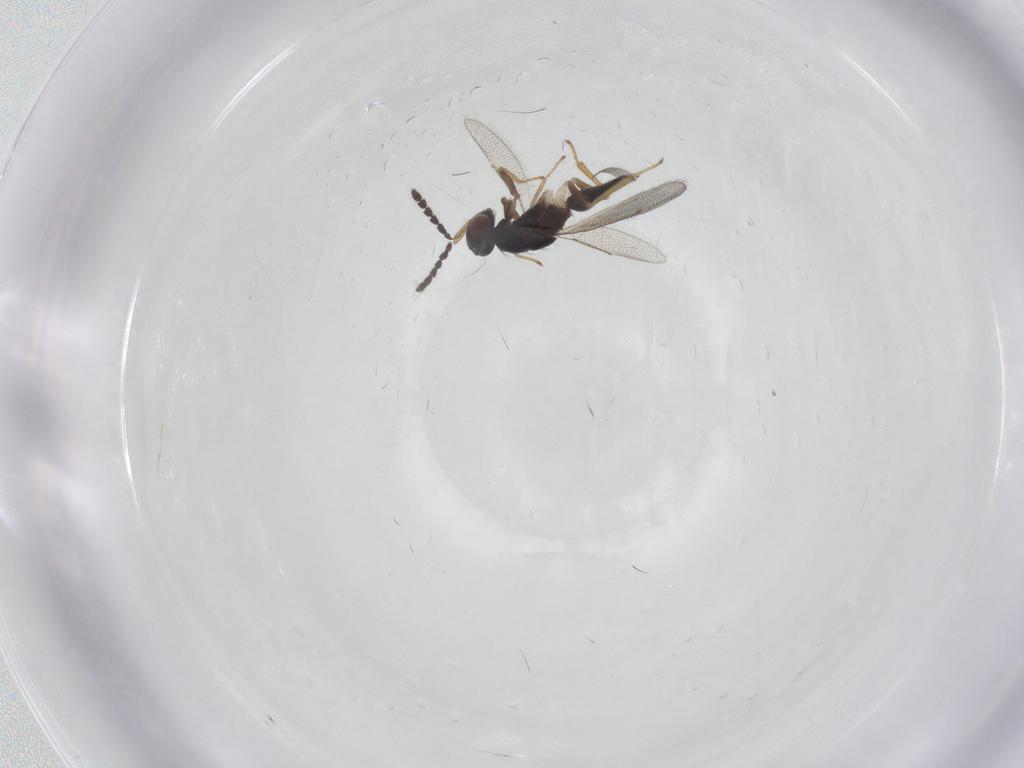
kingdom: Animalia
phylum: Arthropoda
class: Insecta
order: Hymenoptera
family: Eulophidae
